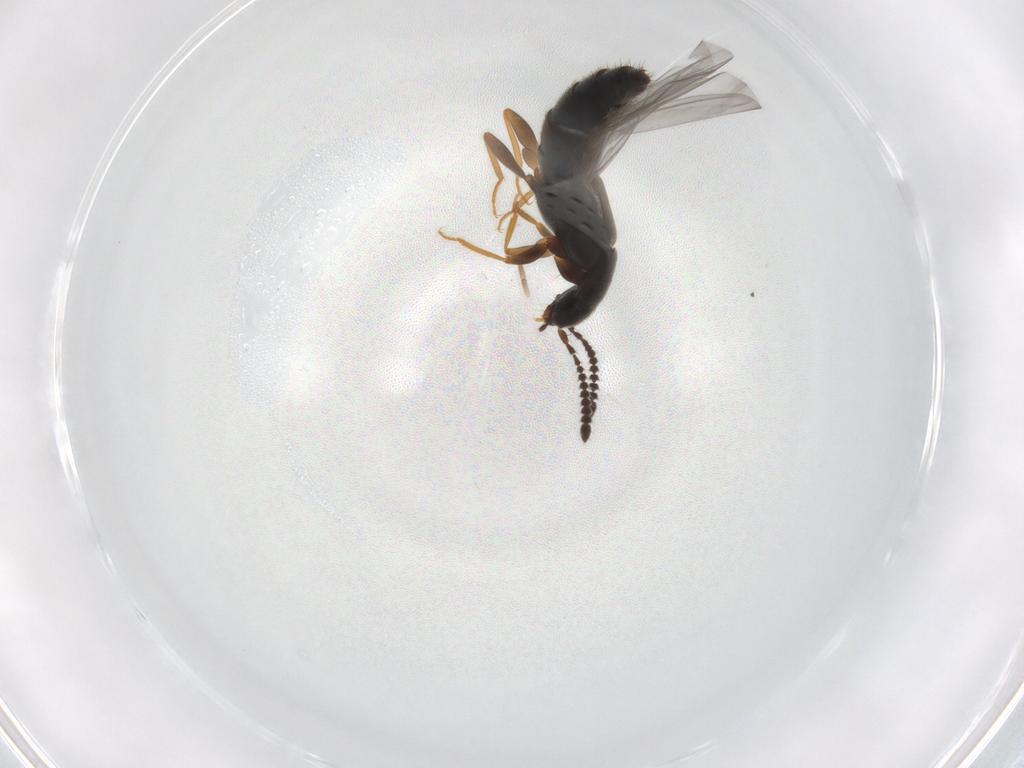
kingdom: Animalia
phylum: Arthropoda
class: Insecta
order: Coleoptera
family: Staphylinidae
